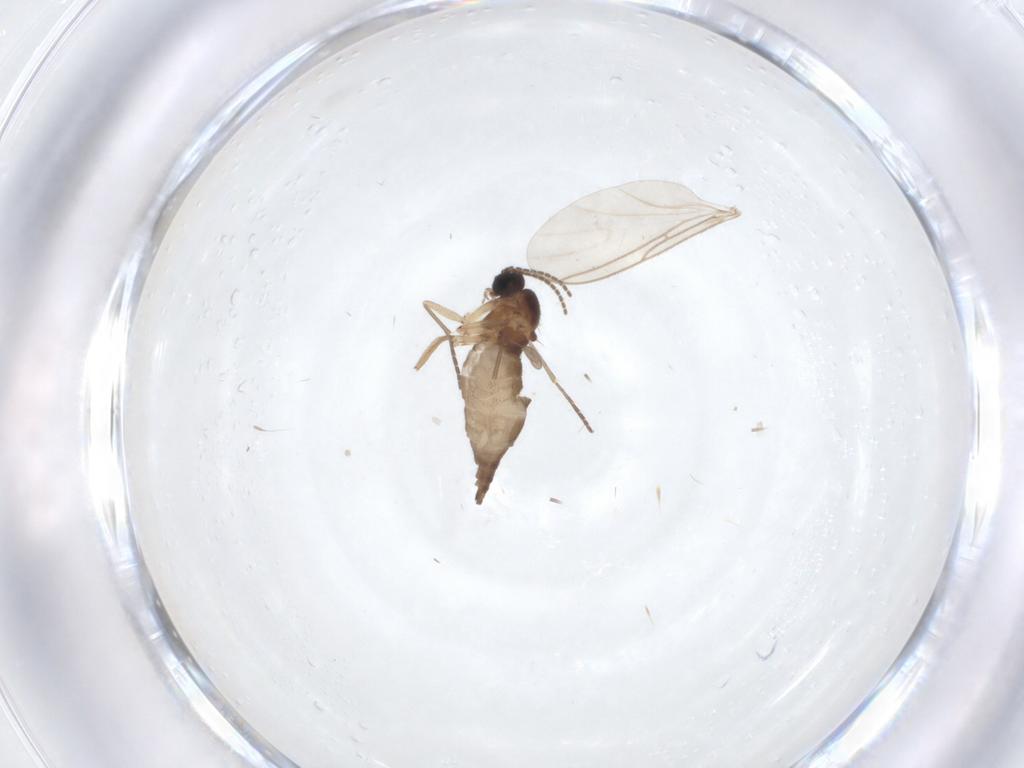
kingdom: Animalia
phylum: Arthropoda
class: Insecta
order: Diptera
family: Sciaridae
